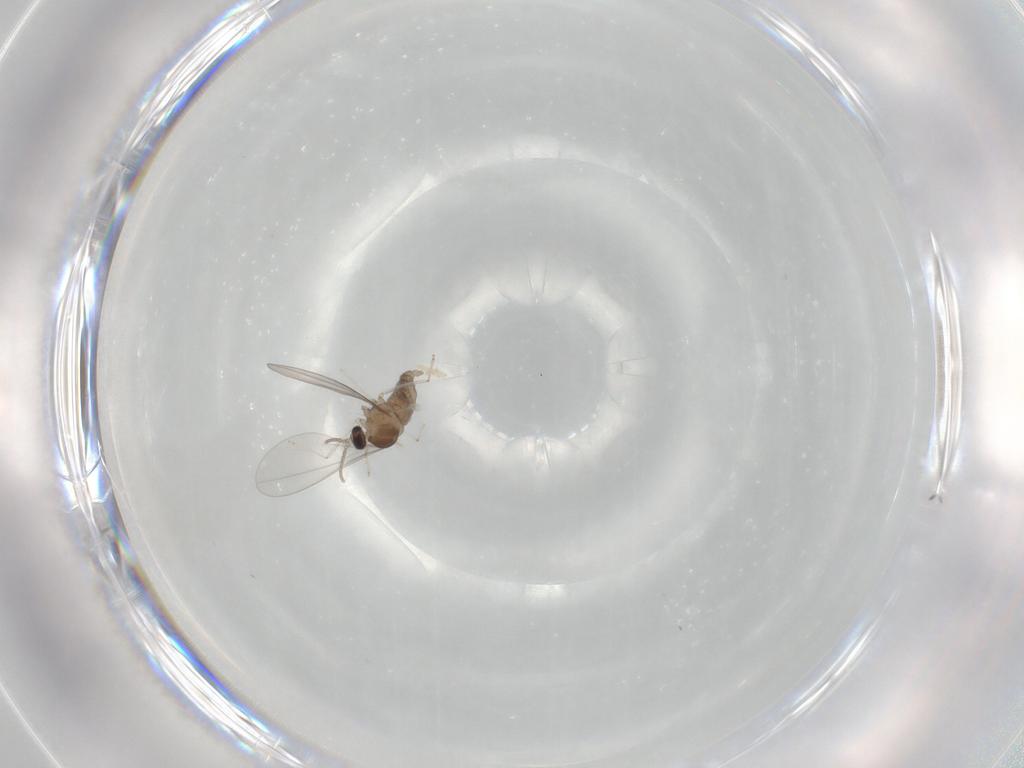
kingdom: Animalia
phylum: Arthropoda
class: Insecta
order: Diptera
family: Cecidomyiidae
